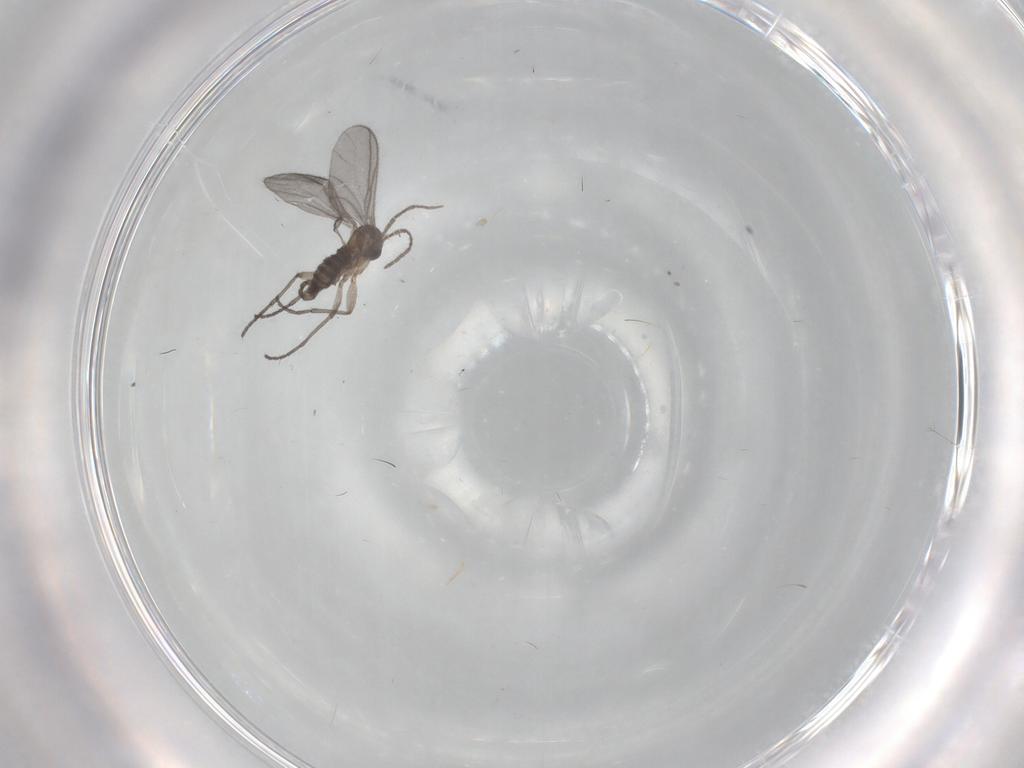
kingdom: Animalia
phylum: Arthropoda
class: Insecta
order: Diptera
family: Sciaridae
